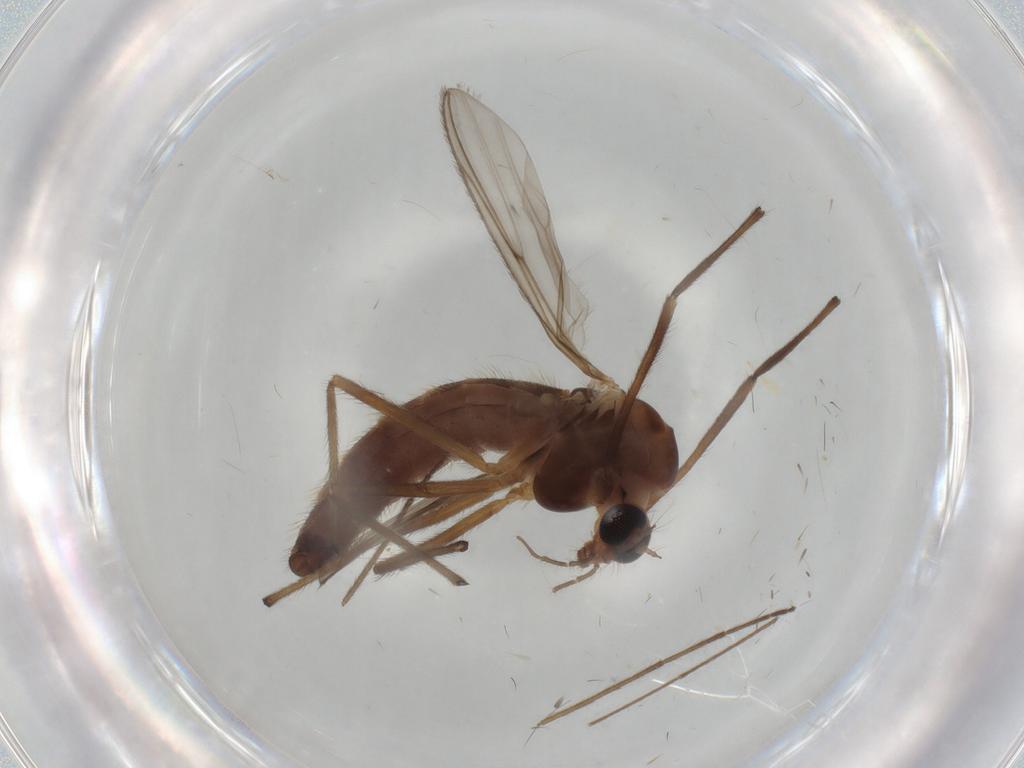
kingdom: Animalia
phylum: Arthropoda
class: Insecta
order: Diptera
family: Chironomidae
